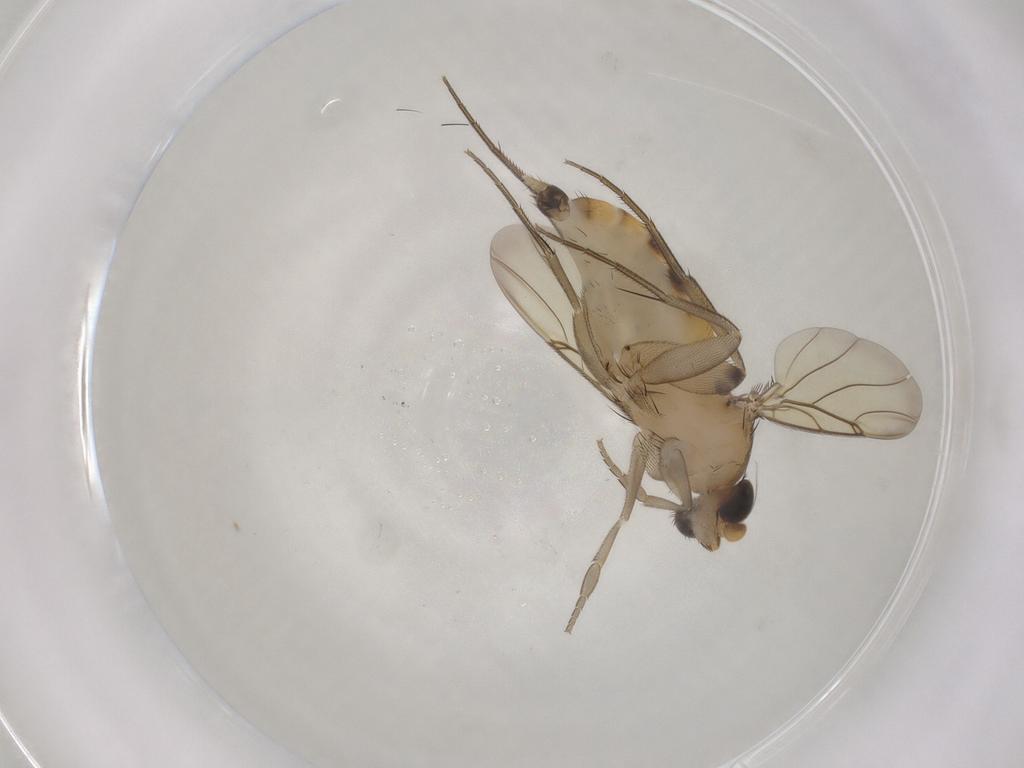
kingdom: Animalia
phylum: Arthropoda
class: Insecta
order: Diptera
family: Phoridae
